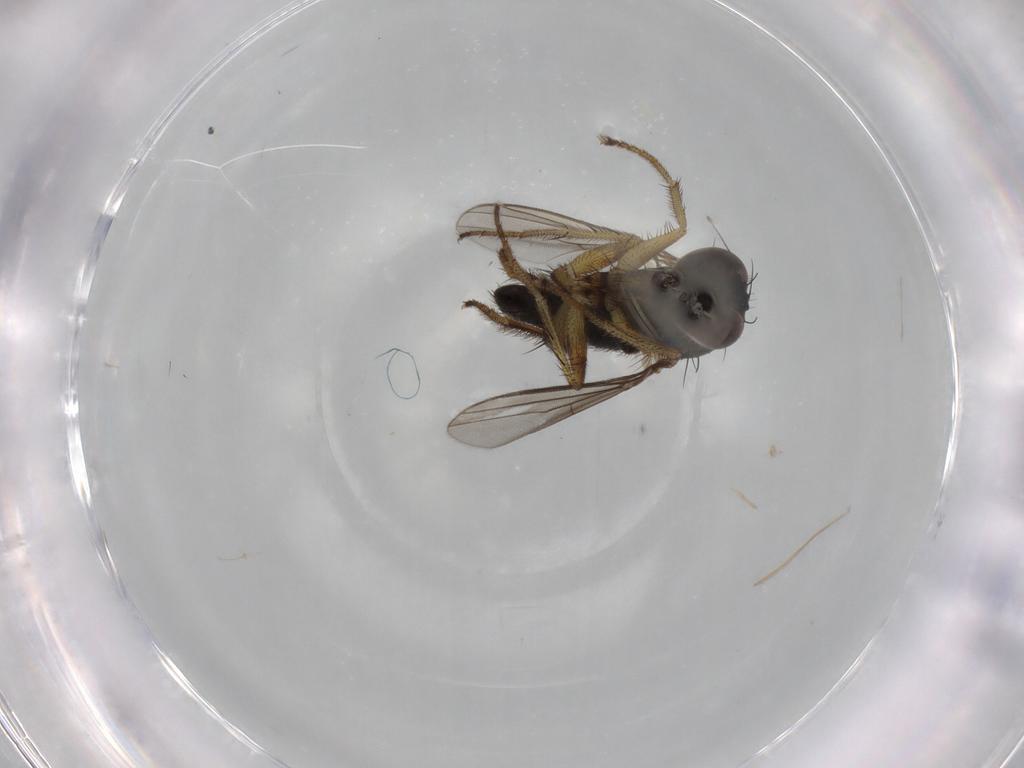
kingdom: Animalia
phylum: Arthropoda
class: Insecta
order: Diptera
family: Dolichopodidae
